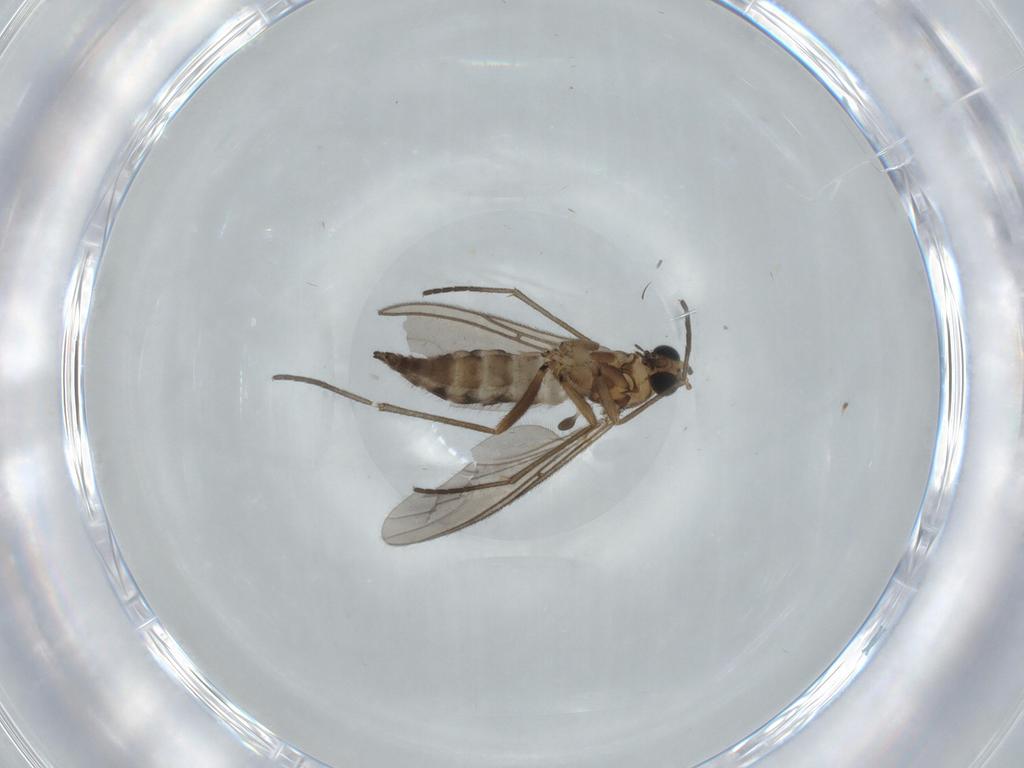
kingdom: Animalia
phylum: Arthropoda
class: Insecta
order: Diptera
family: Sciaridae
